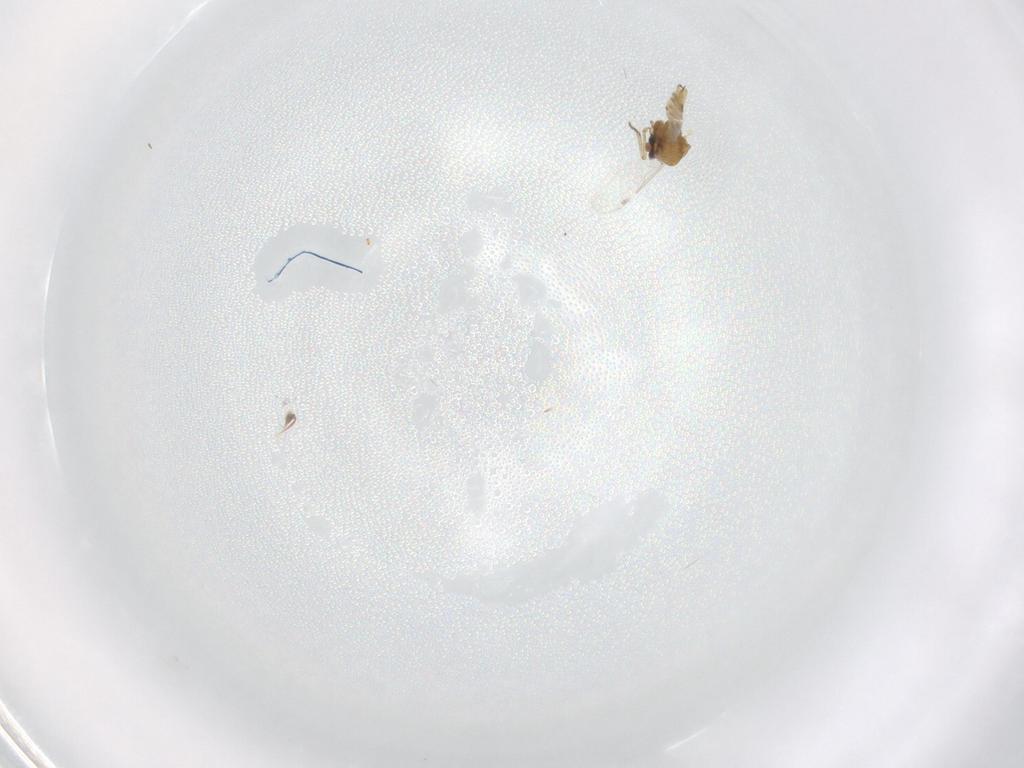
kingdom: Animalia
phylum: Arthropoda
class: Insecta
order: Diptera
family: Ceratopogonidae
